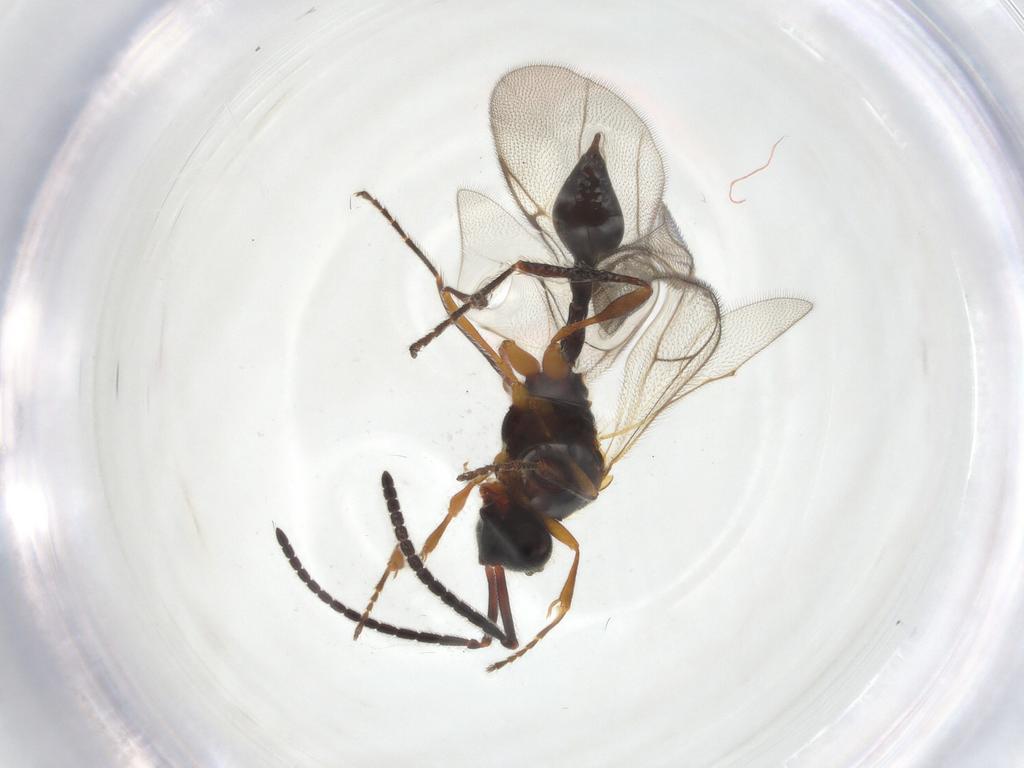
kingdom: Animalia
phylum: Arthropoda
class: Insecta
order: Hymenoptera
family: Diapriidae
